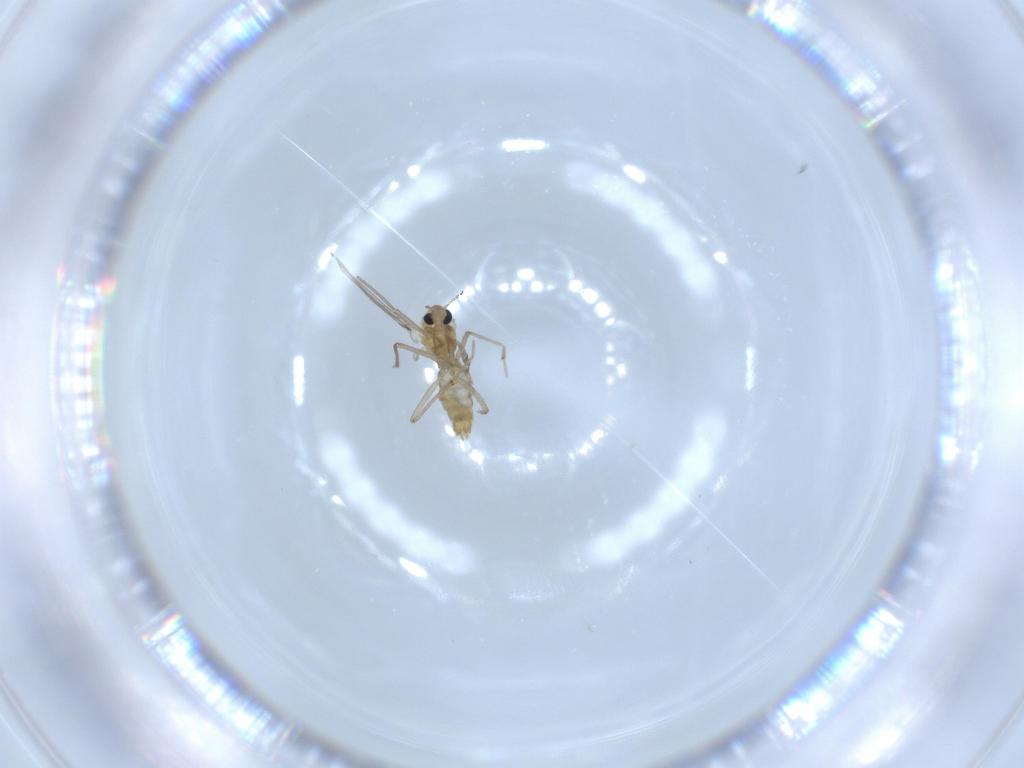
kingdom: Animalia
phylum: Arthropoda
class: Insecta
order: Diptera
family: Chironomidae
